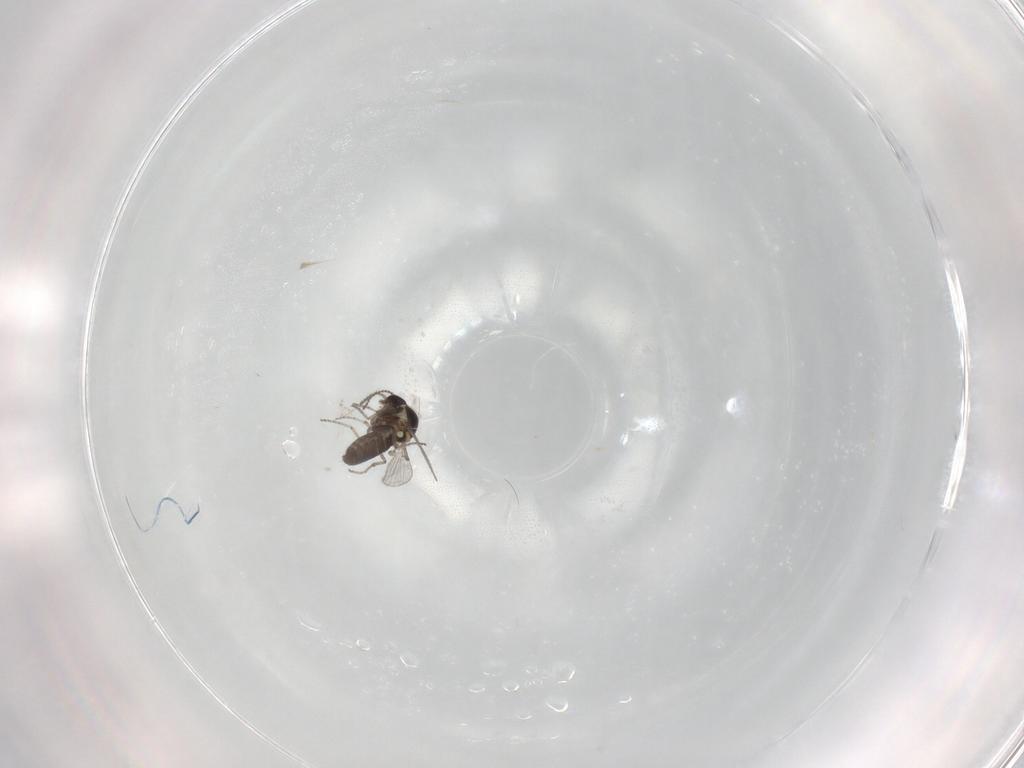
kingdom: Animalia
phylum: Arthropoda
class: Insecta
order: Diptera
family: Ceratopogonidae
